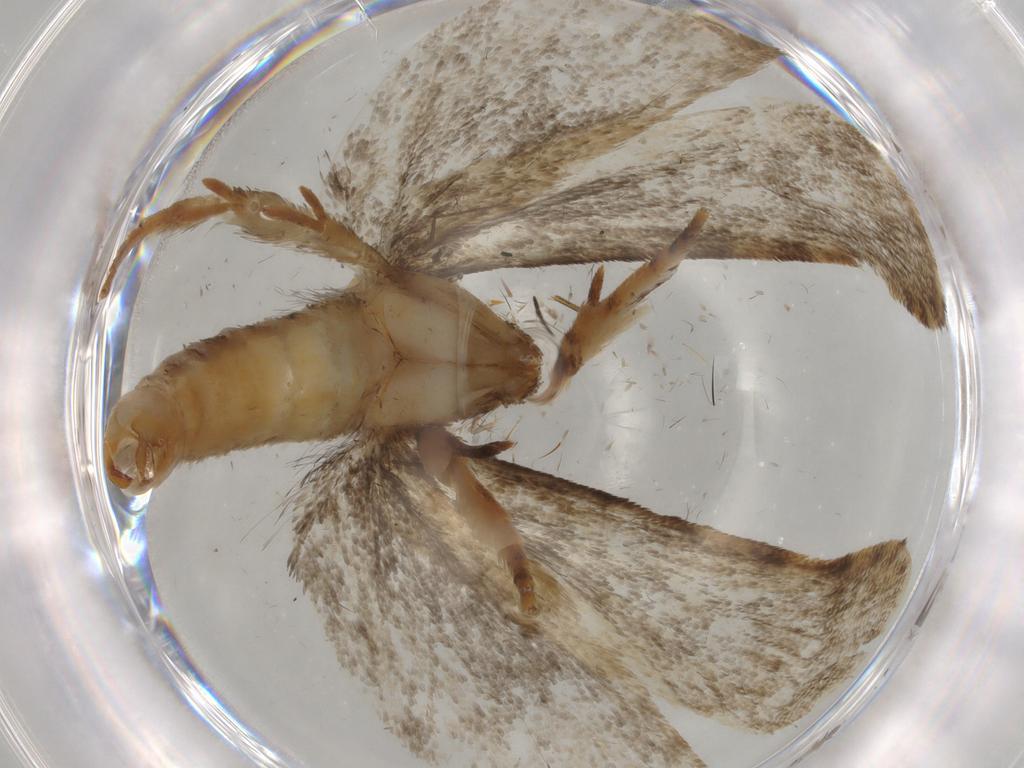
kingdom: Animalia
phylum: Arthropoda
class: Insecta
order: Lepidoptera
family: Tineidae
